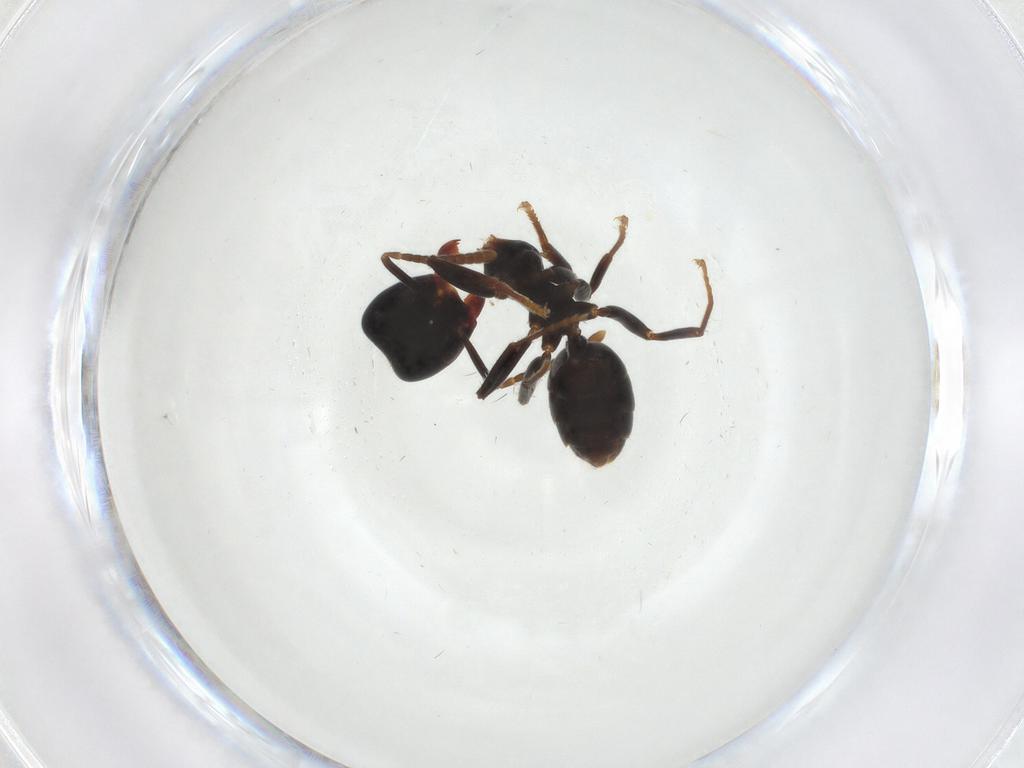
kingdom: Animalia
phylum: Arthropoda
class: Insecta
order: Hymenoptera
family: Formicidae
